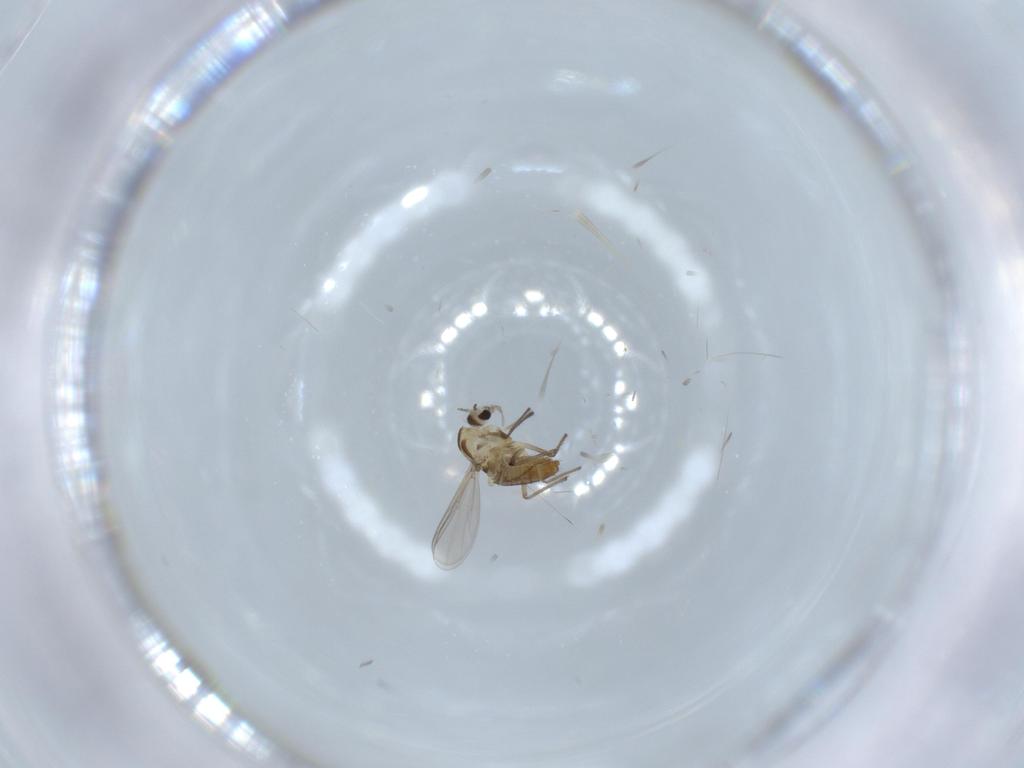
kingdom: Animalia
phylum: Arthropoda
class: Insecta
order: Diptera
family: Chironomidae
